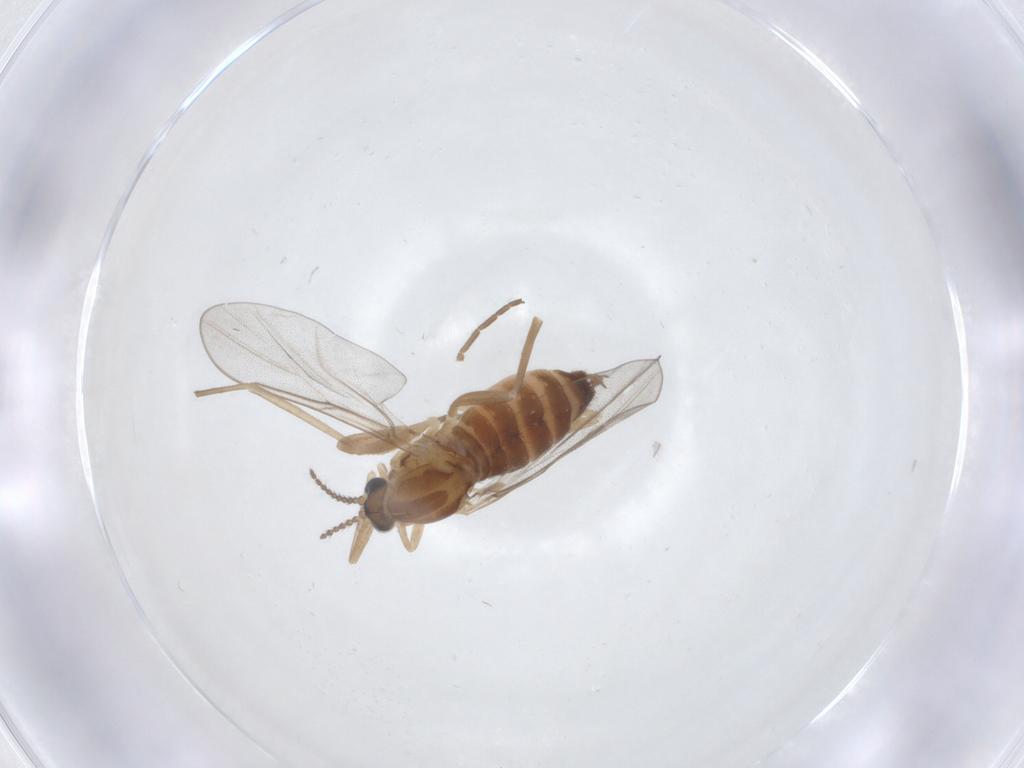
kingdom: Animalia
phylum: Arthropoda
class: Insecta
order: Diptera
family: Cecidomyiidae
